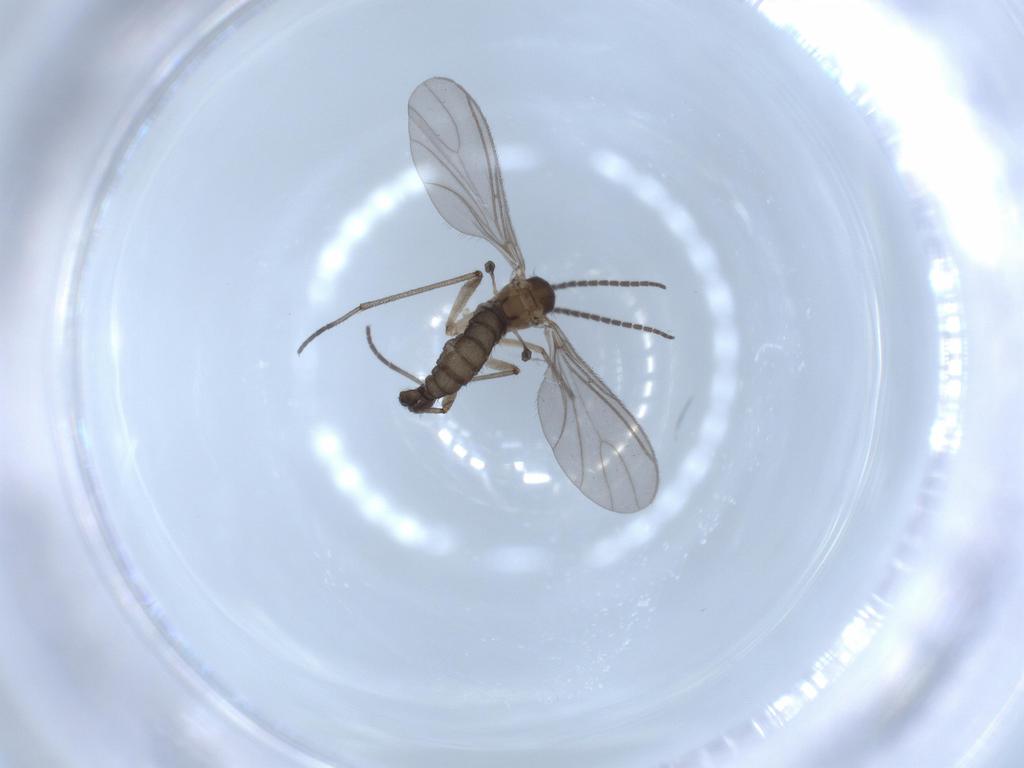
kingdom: Animalia
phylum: Arthropoda
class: Insecta
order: Diptera
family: Sciaridae
